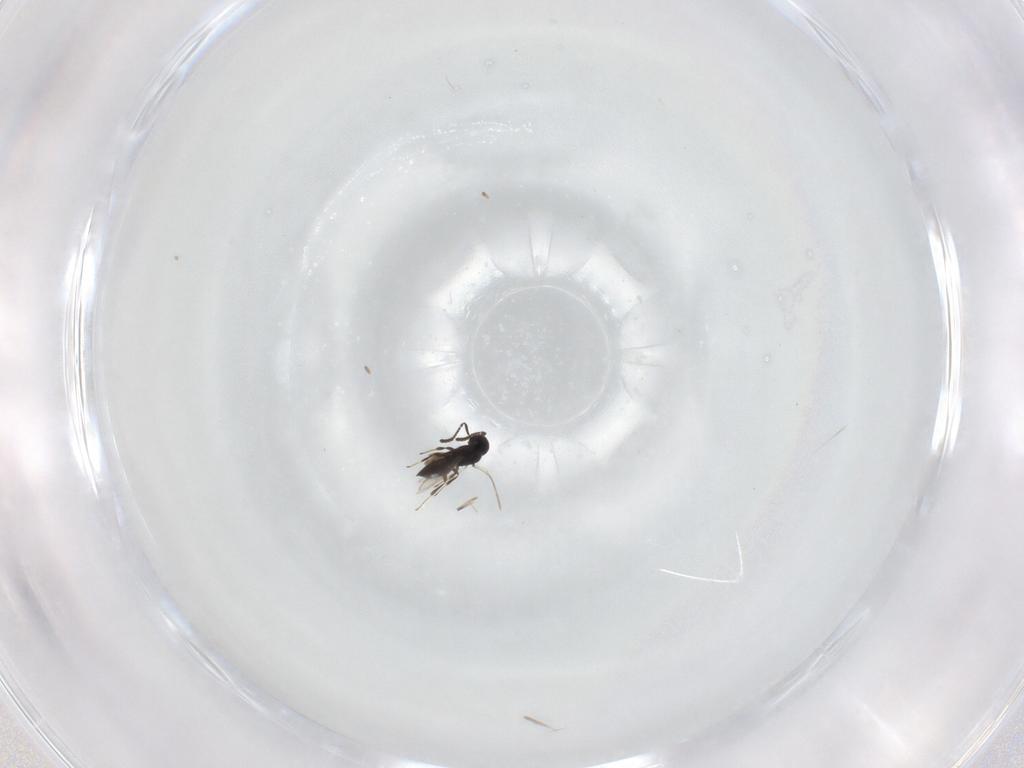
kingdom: Animalia
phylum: Arthropoda
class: Insecta
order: Hymenoptera
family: Scelionidae
